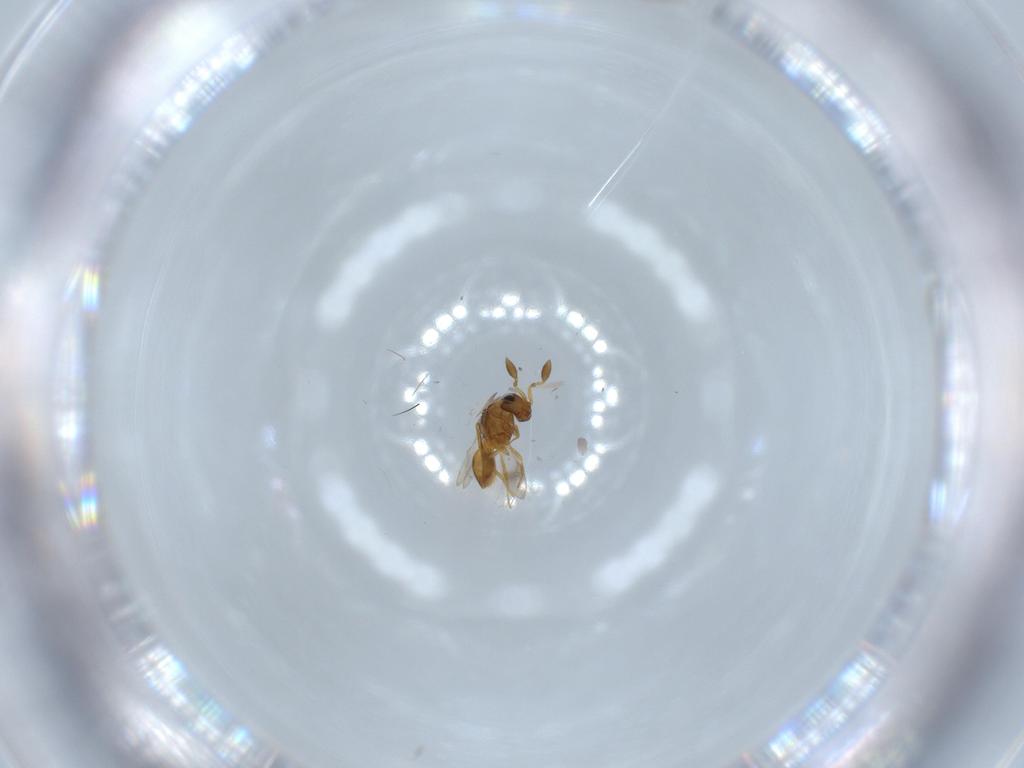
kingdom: Animalia
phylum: Arthropoda
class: Insecta
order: Hymenoptera
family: Scelionidae
